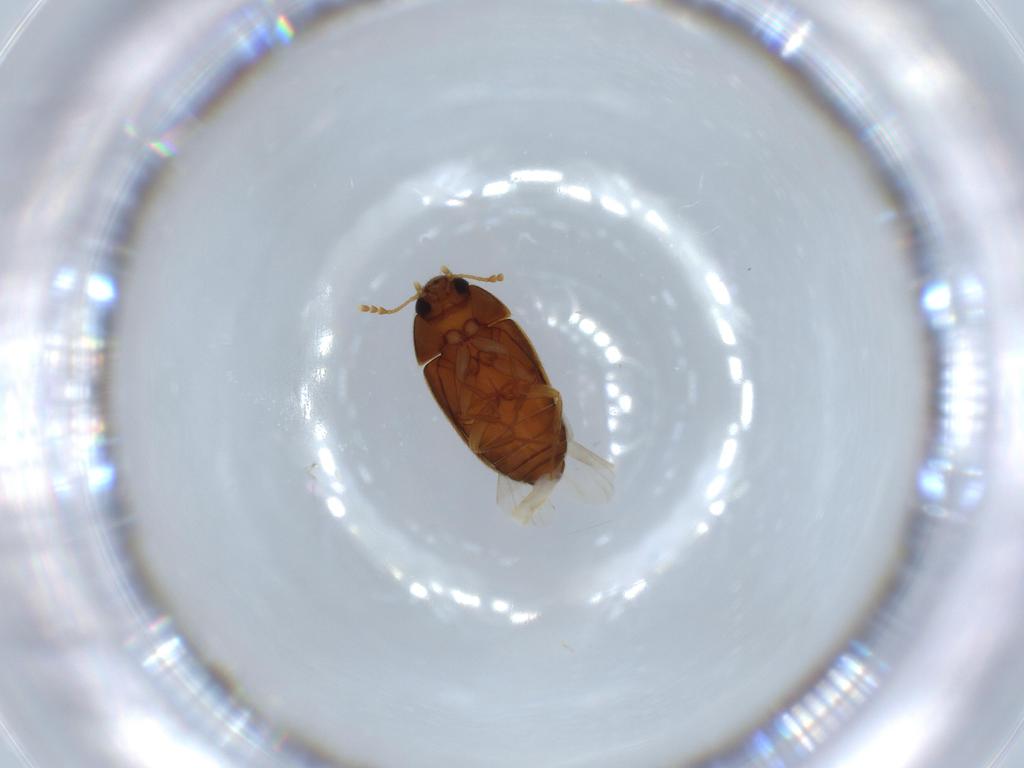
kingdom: Animalia
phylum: Arthropoda
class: Insecta
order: Coleoptera
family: Mycetophagidae
